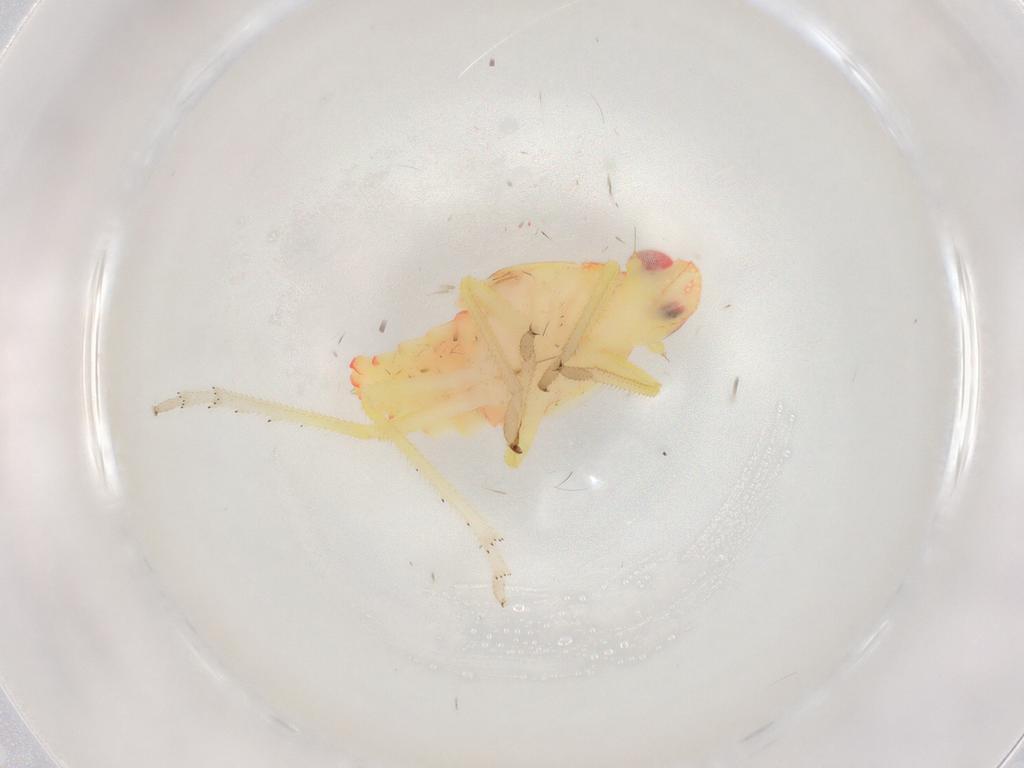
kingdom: Animalia
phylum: Arthropoda
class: Insecta
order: Hemiptera
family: Tropiduchidae
